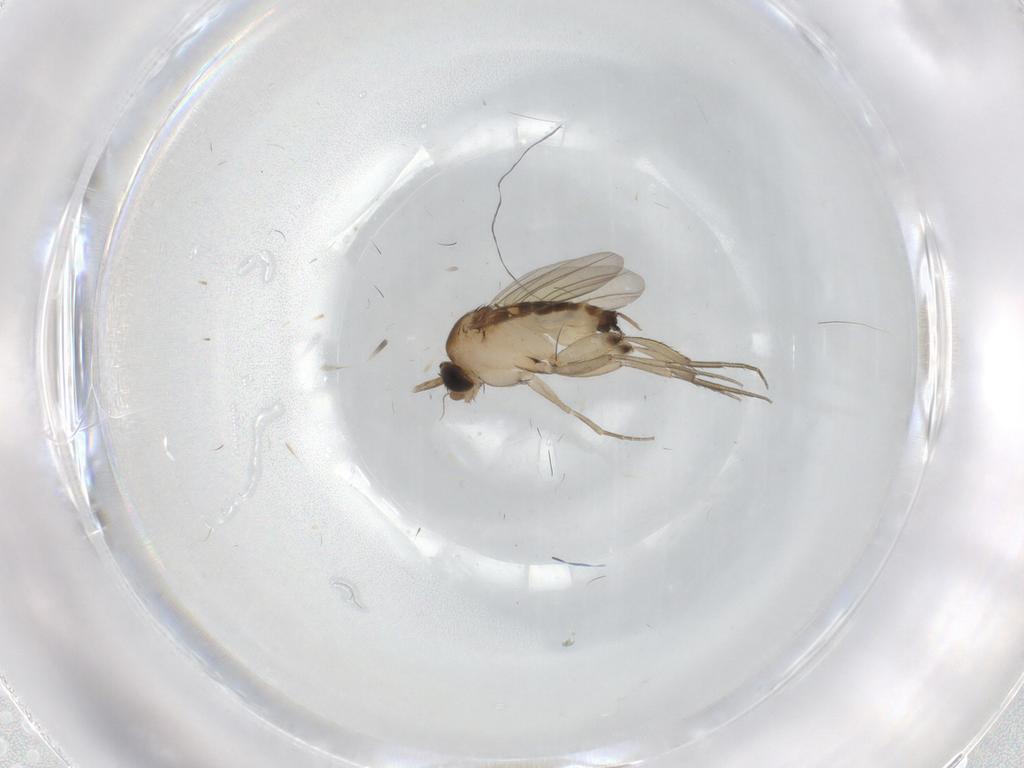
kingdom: Animalia
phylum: Arthropoda
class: Insecta
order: Diptera
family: Phoridae
